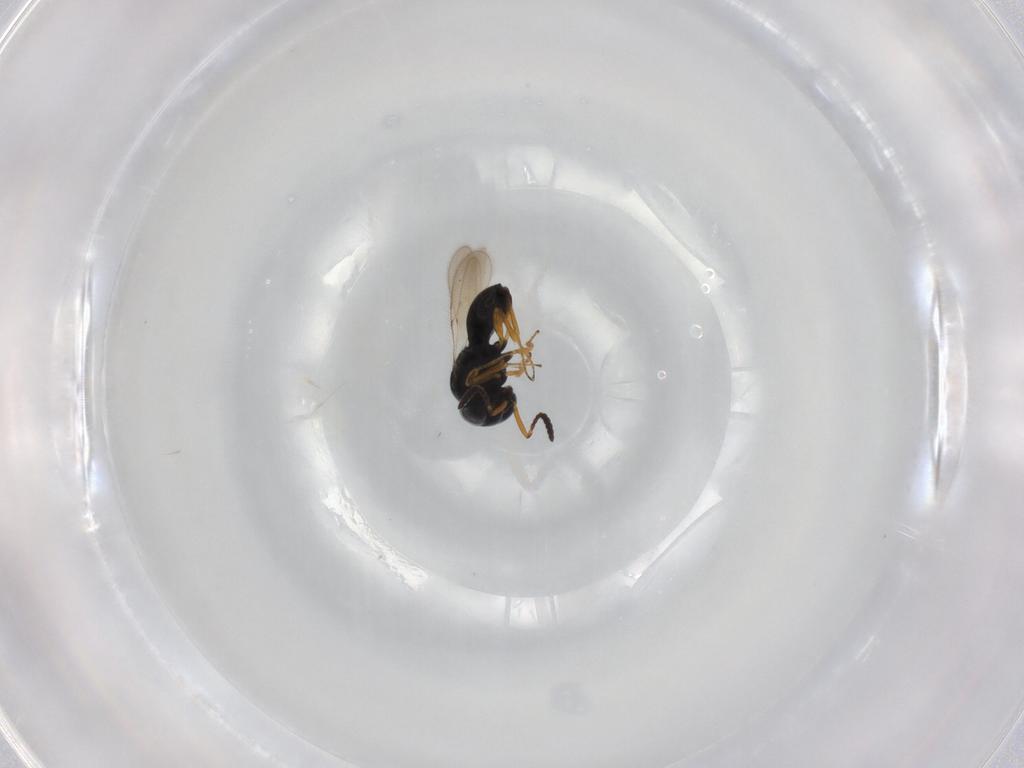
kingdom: Animalia
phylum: Arthropoda
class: Insecta
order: Hymenoptera
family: Scelionidae
